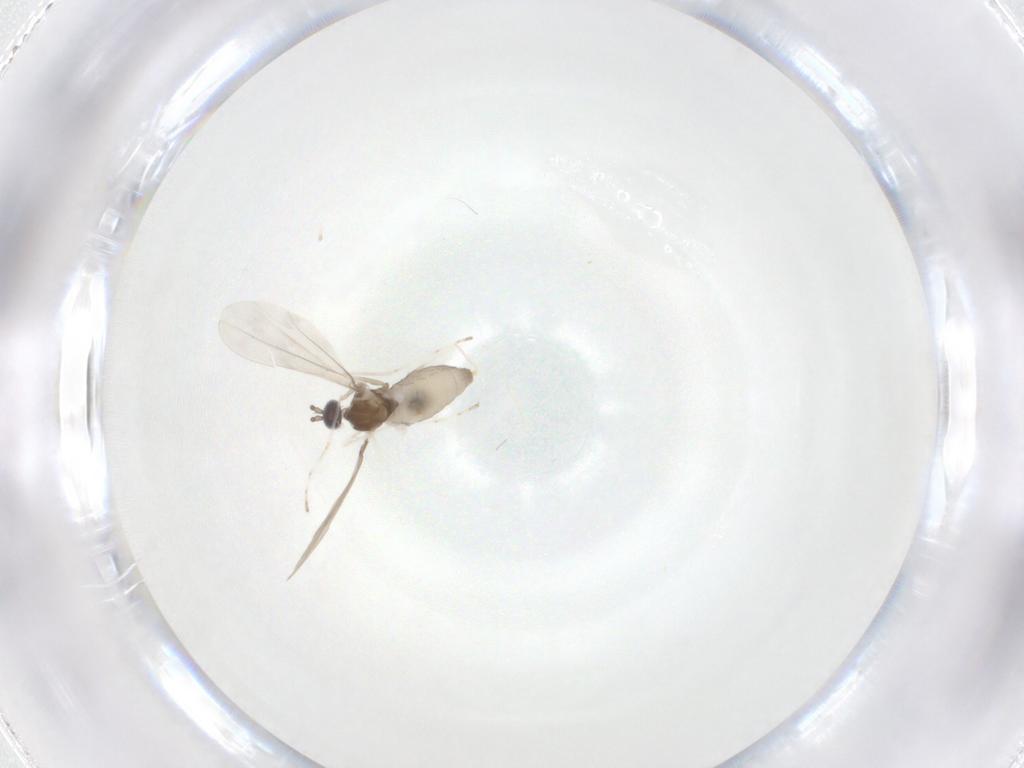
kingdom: Animalia
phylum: Arthropoda
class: Insecta
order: Diptera
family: Cecidomyiidae
